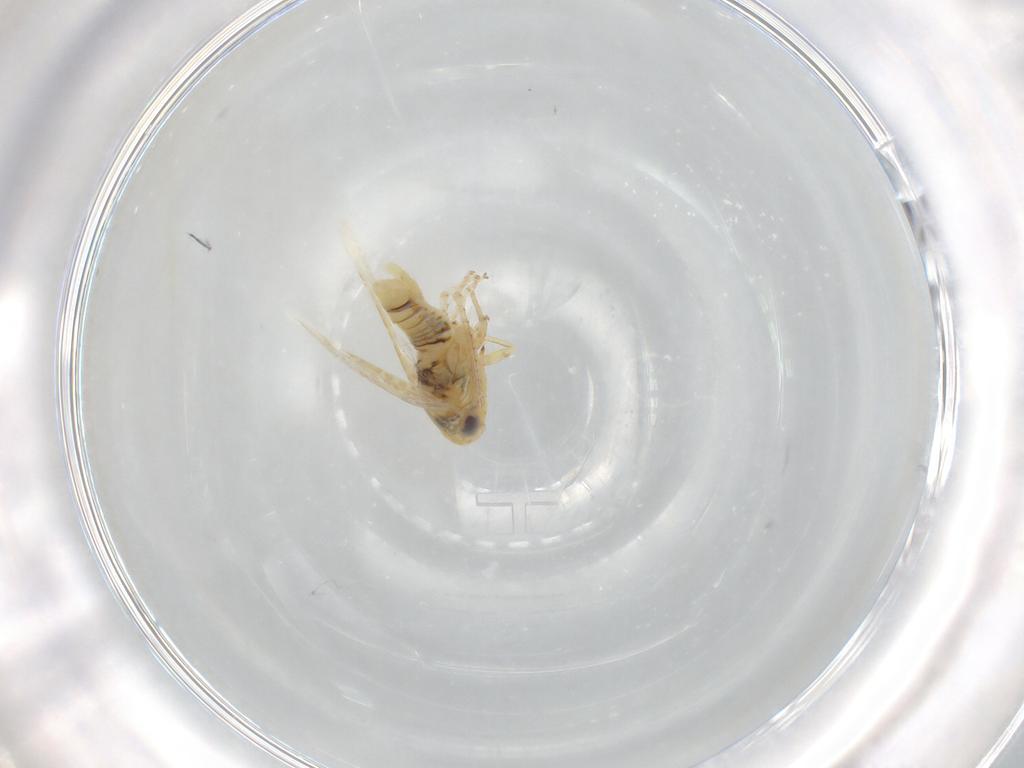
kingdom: Animalia
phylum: Arthropoda
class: Insecta
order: Hemiptera
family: Cicadellidae
